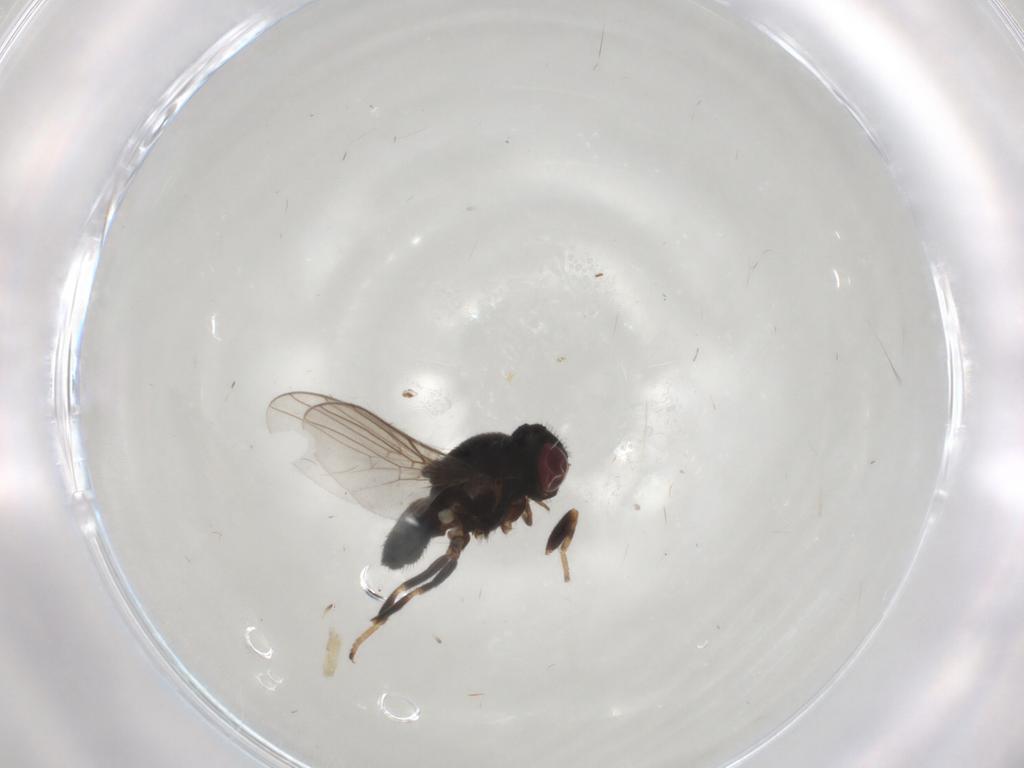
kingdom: Animalia
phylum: Arthropoda
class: Insecta
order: Diptera
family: Chloropidae
